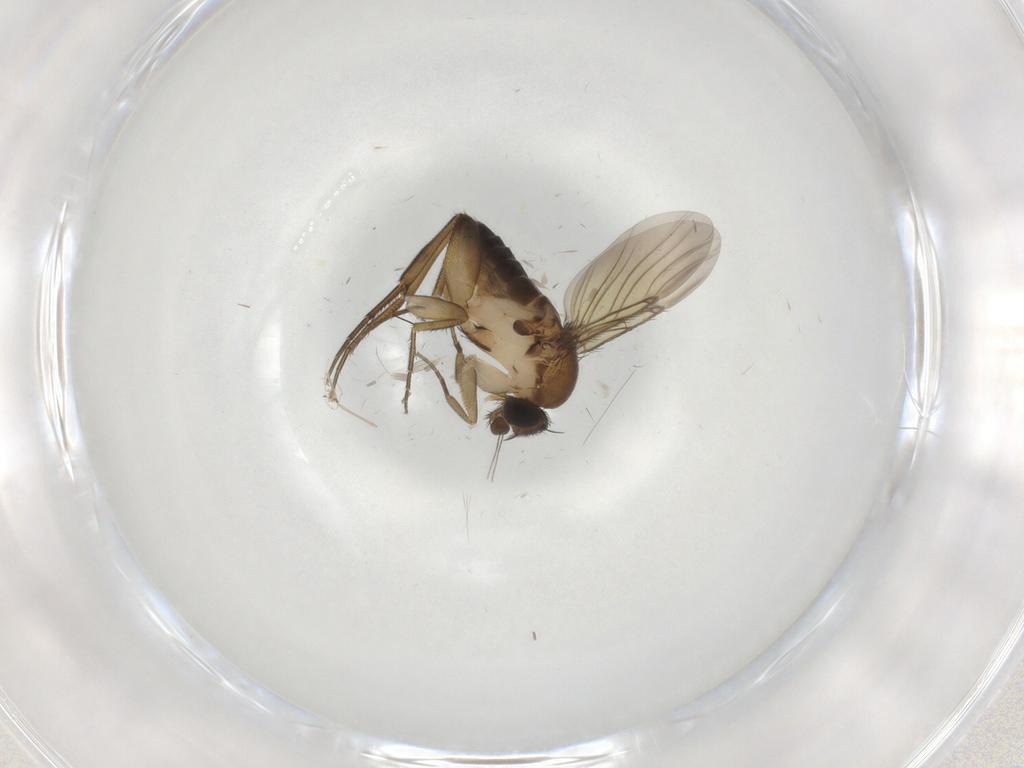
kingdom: Animalia
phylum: Arthropoda
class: Insecta
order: Diptera
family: Phoridae
